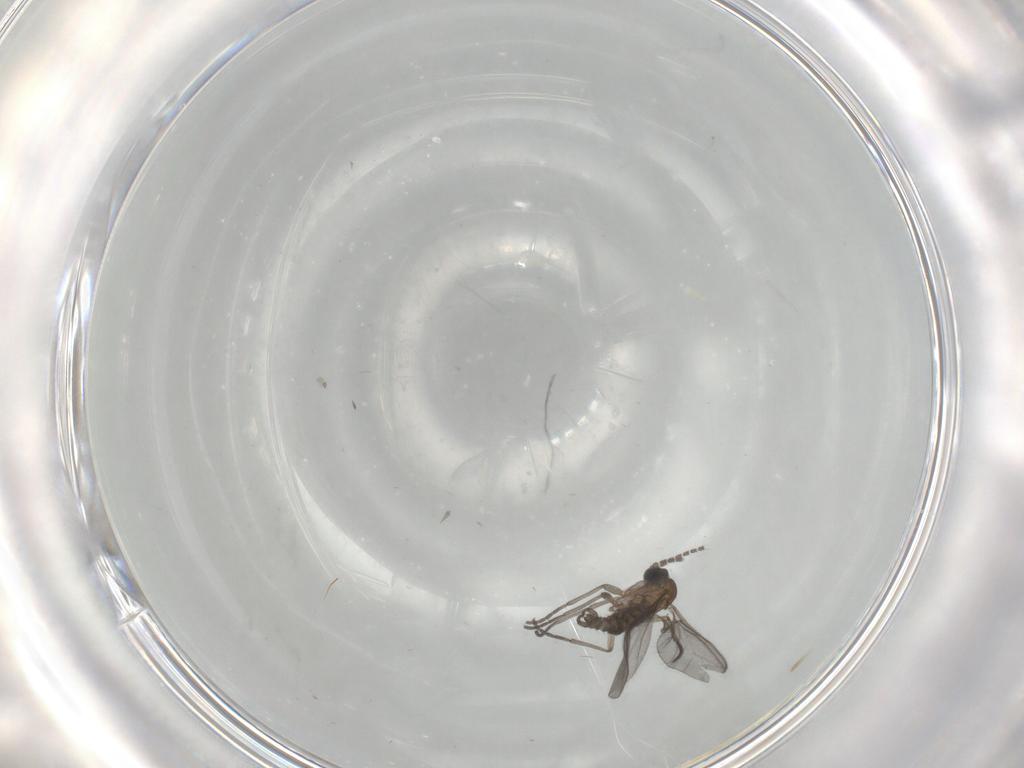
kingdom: Animalia
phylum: Arthropoda
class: Insecta
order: Diptera
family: Sciaridae
